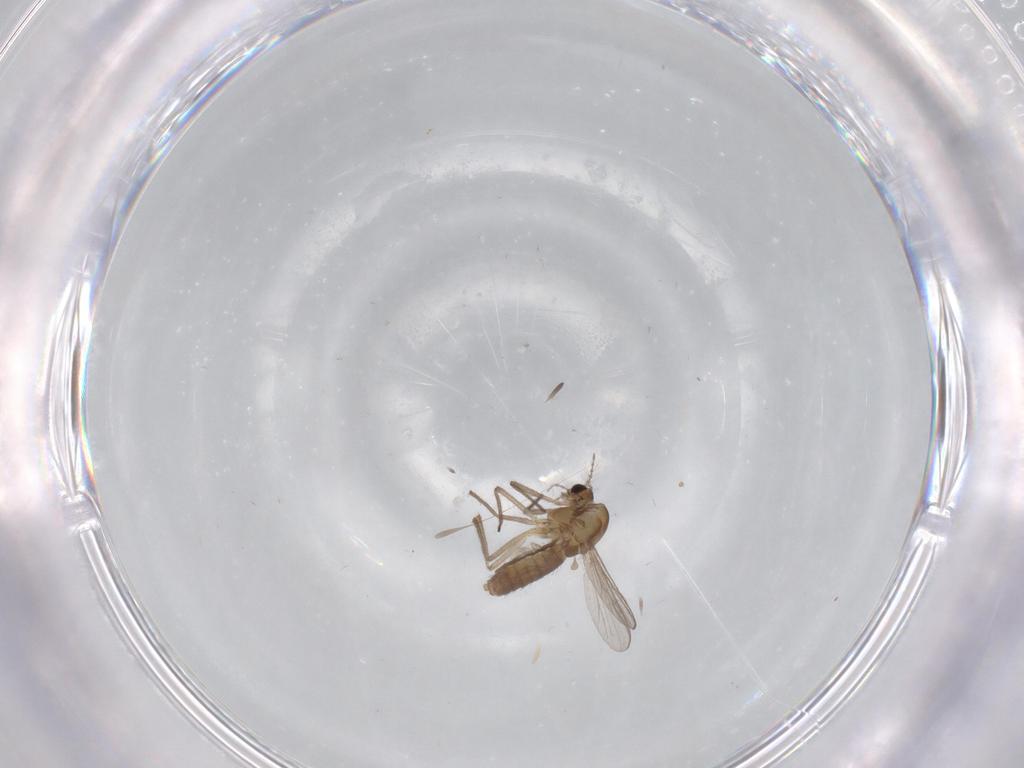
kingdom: Animalia
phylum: Arthropoda
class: Insecta
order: Diptera
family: Cecidomyiidae
